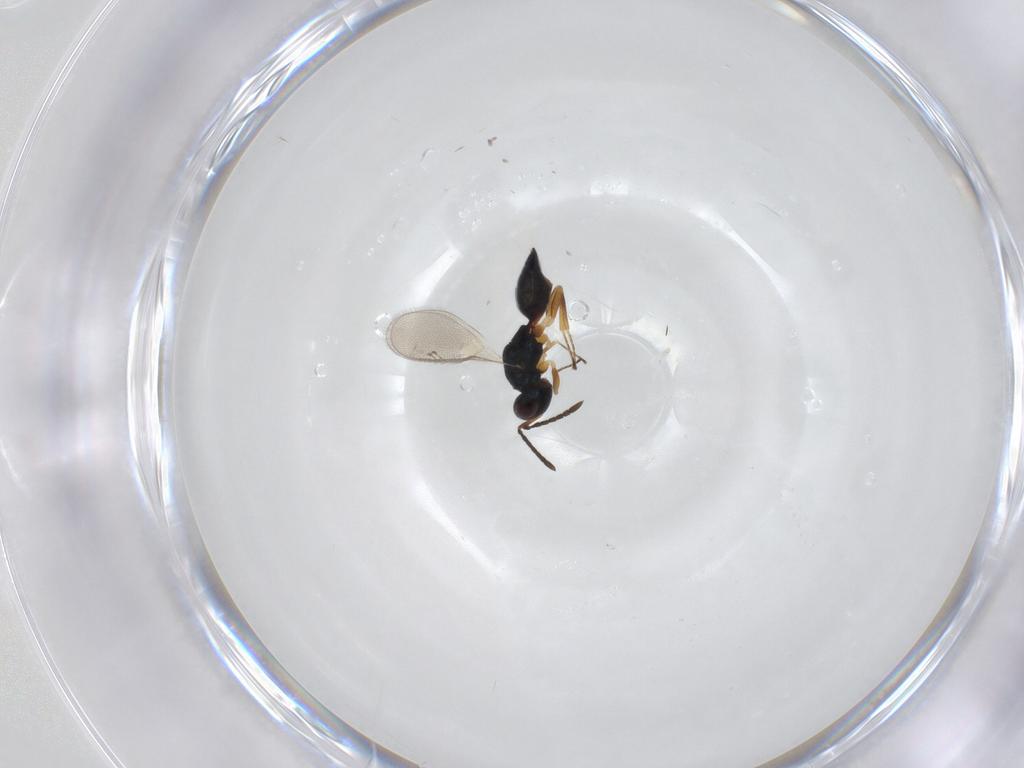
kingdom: Animalia
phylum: Arthropoda
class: Insecta
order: Hymenoptera
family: Pteromalidae
